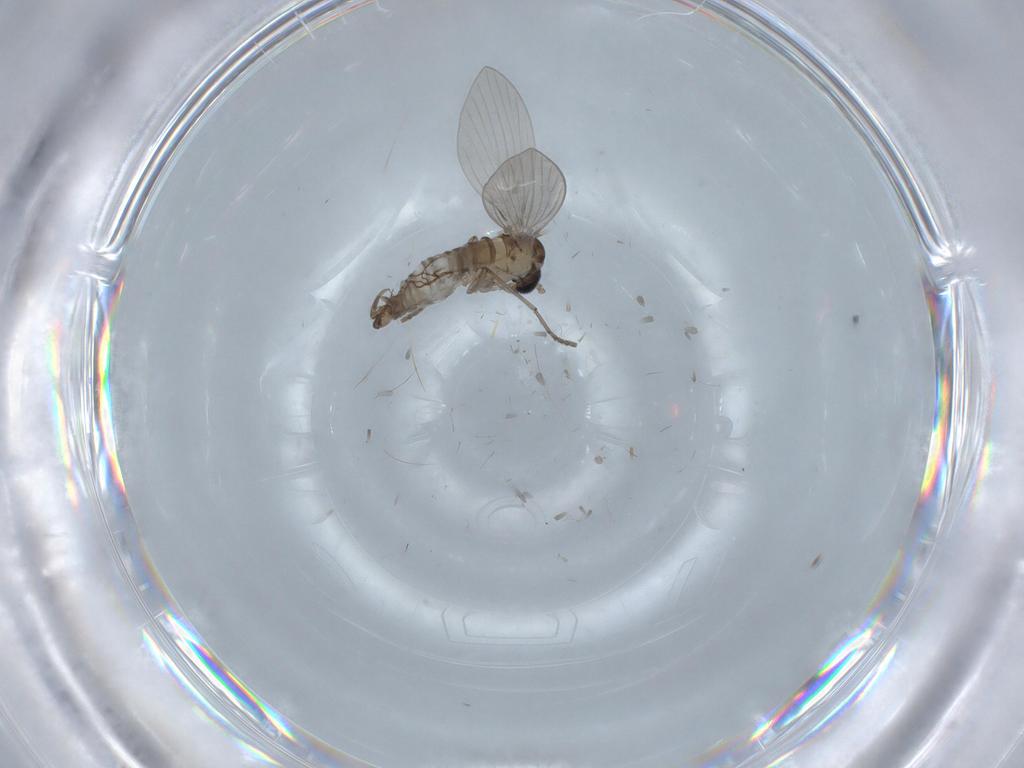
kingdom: Animalia
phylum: Arthropoda
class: Insecta
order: Diptera
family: Drosophilidae
